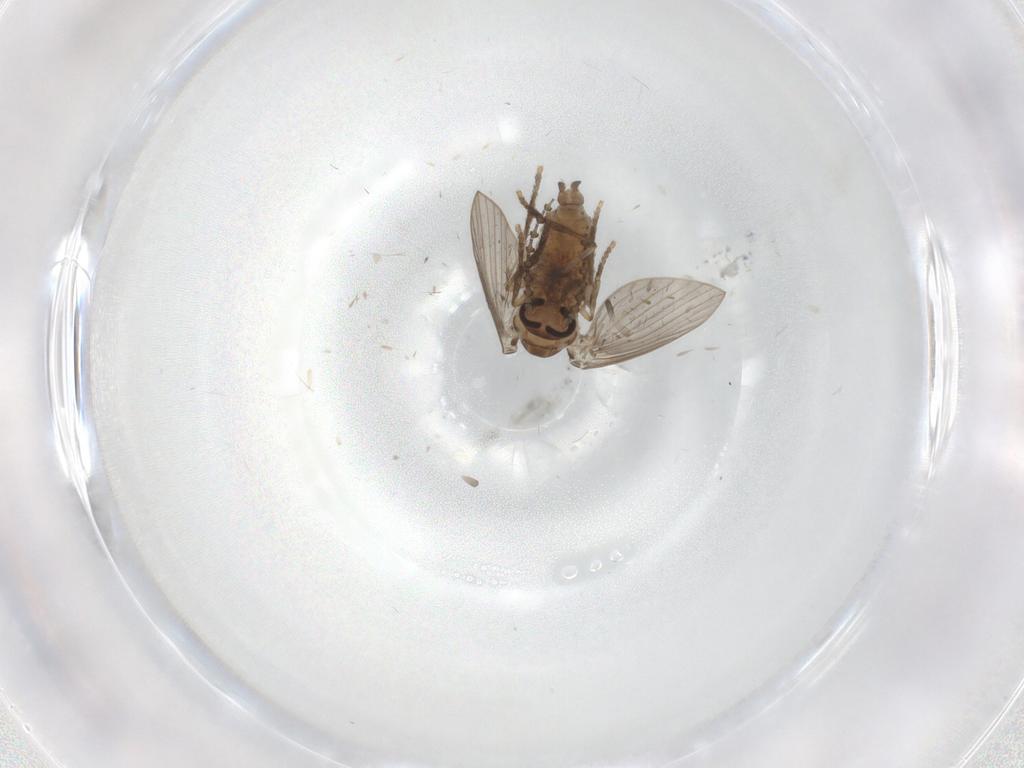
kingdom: Animalia
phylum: Arthropoda
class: Insecta
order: Diptera
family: Psychodidae
